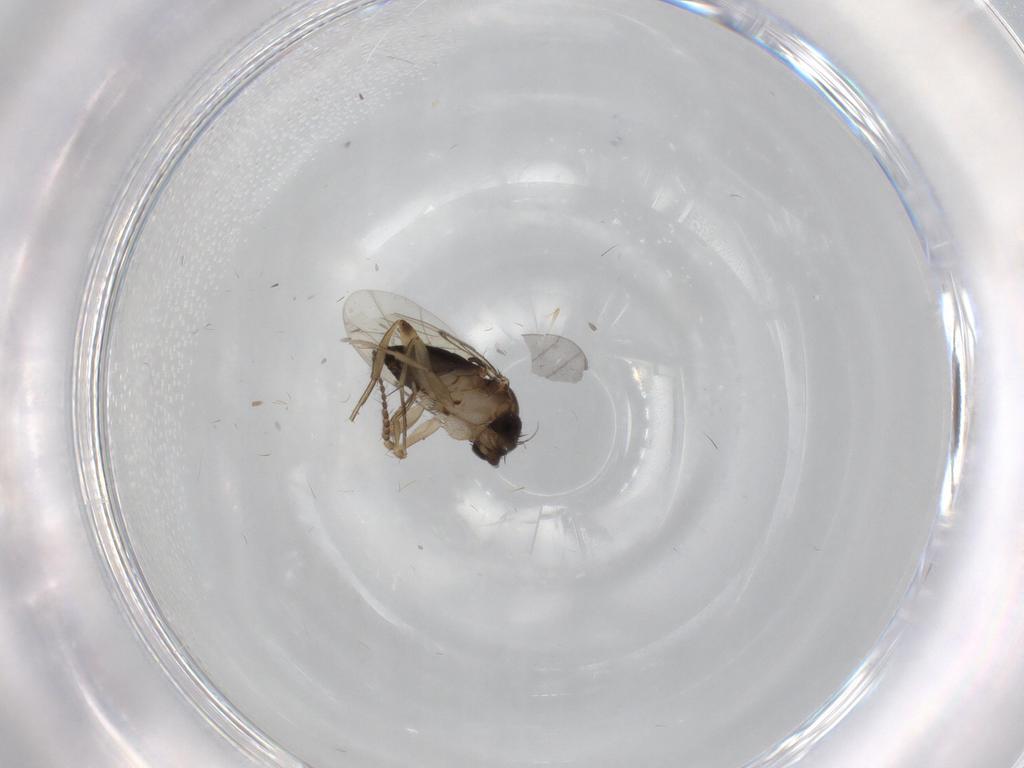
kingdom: Animalia
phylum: Arthropoda
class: Insecta
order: Diptera
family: Phoridae
